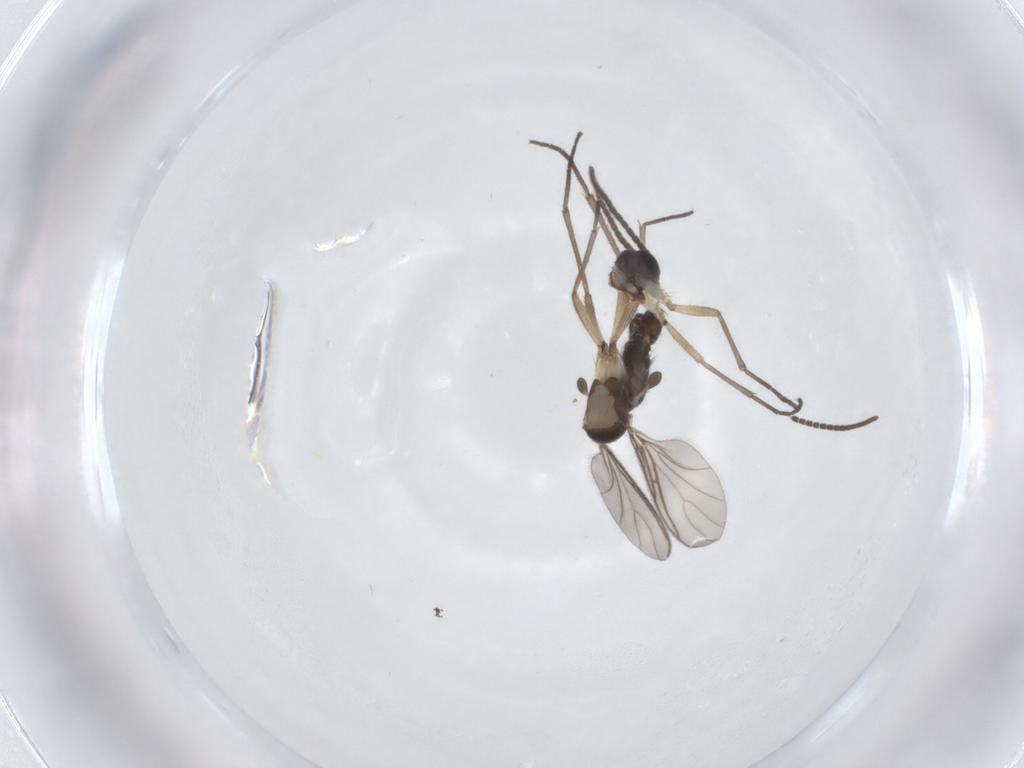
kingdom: Animalia
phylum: Arthropoda
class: Insecta
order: Diptera
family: Sciaridae
